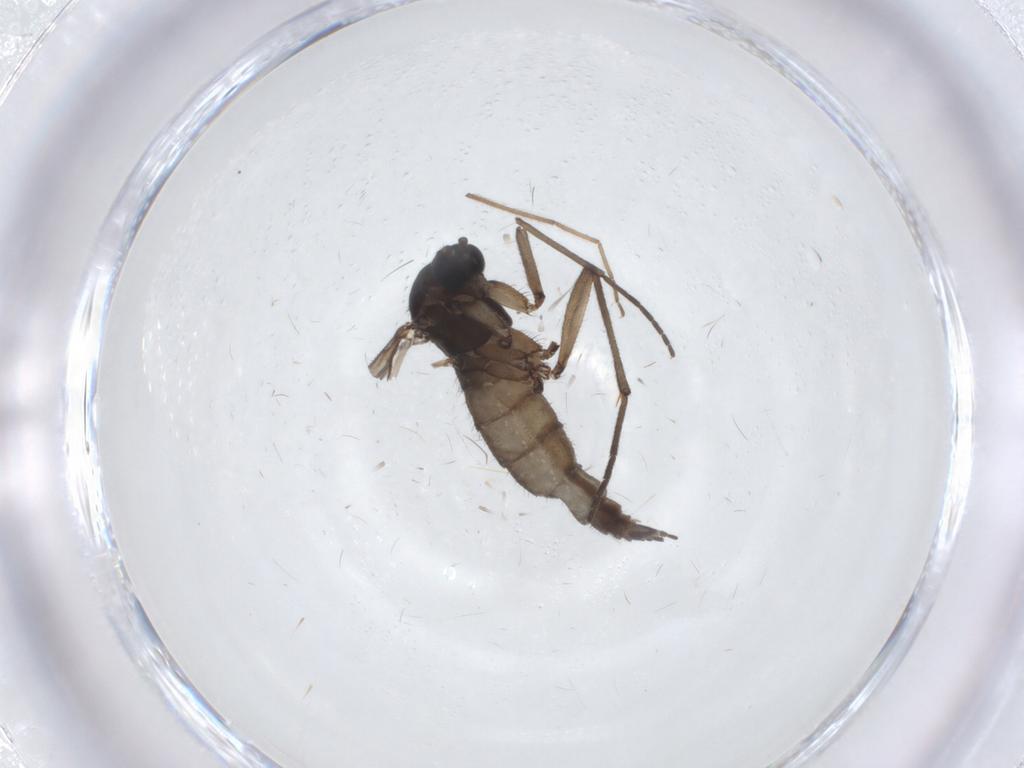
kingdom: Animalia
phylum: Arthropoda
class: Insecta
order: Diptera
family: Sciaridae
